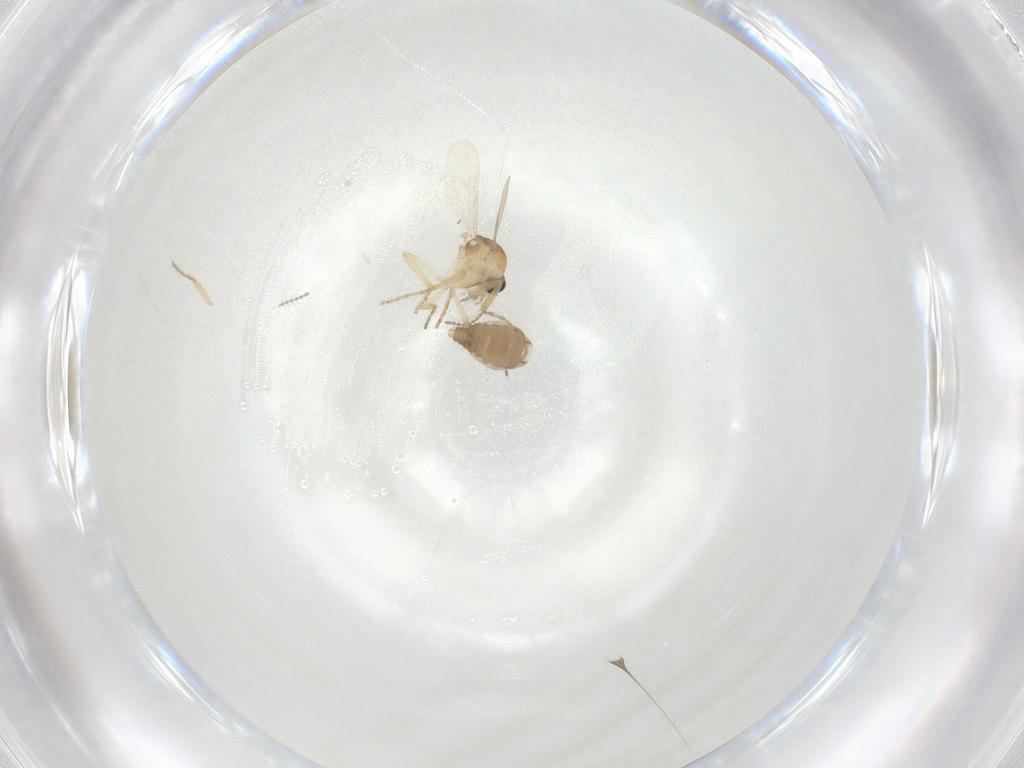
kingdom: Animalia
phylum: Arthropoda
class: Insecta
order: Diptera
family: Ceratopogonidae
